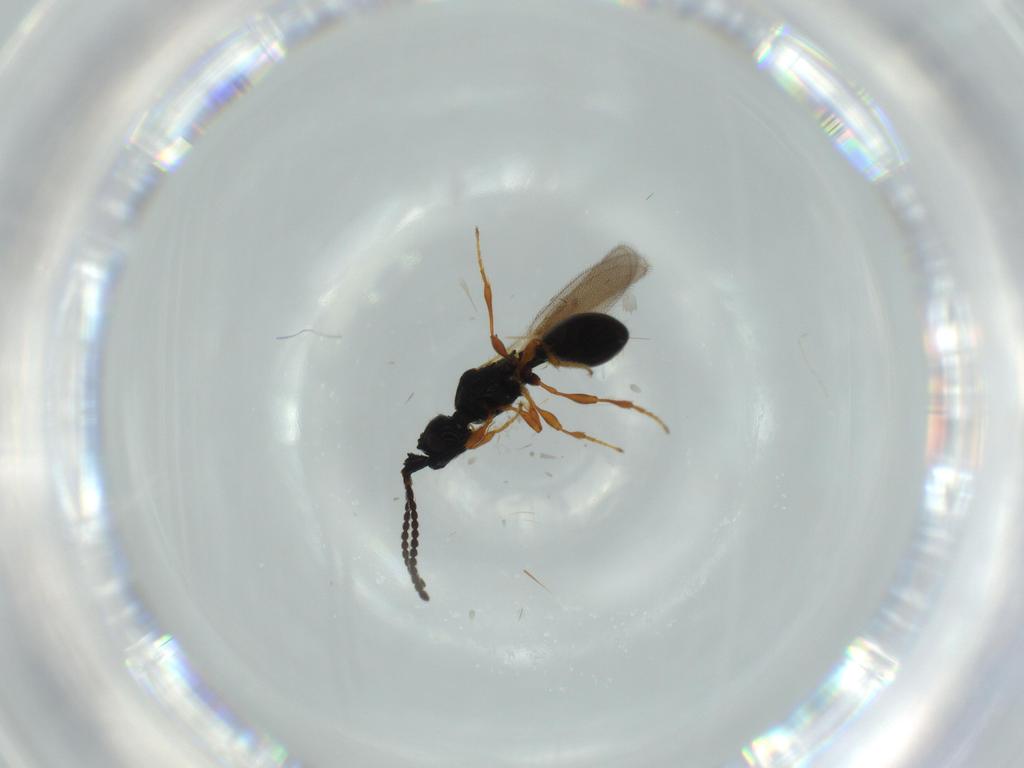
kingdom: Animalia
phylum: Arthropoda
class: Insecta
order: Hymenoptera
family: Diapriidae
